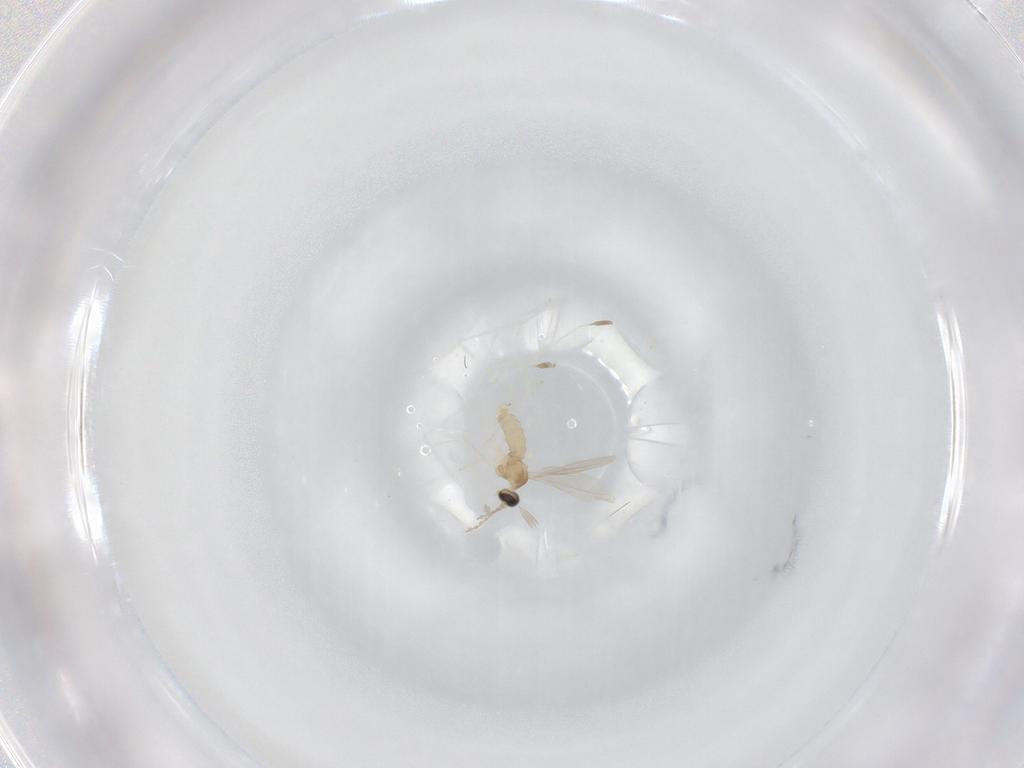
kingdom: Animalia
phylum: Arthropoda
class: Insecta
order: Diptera
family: Cecidomyiidae
